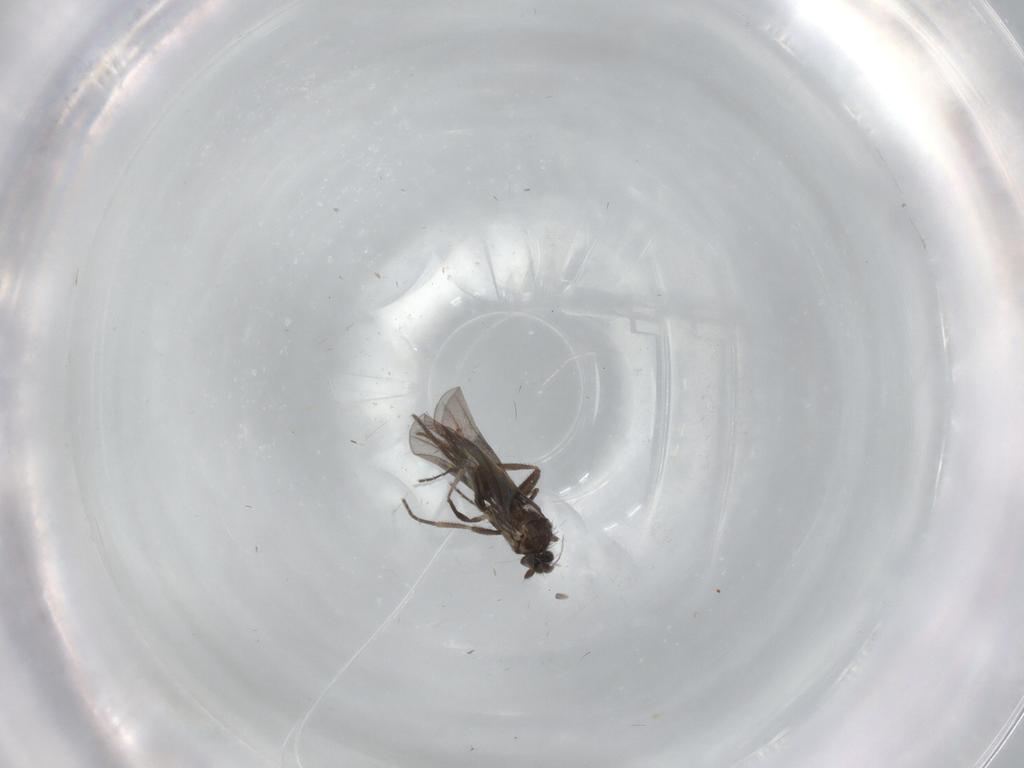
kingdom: Animalia
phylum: Arthropoda
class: Insecta
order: Diptera
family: Phoridae
